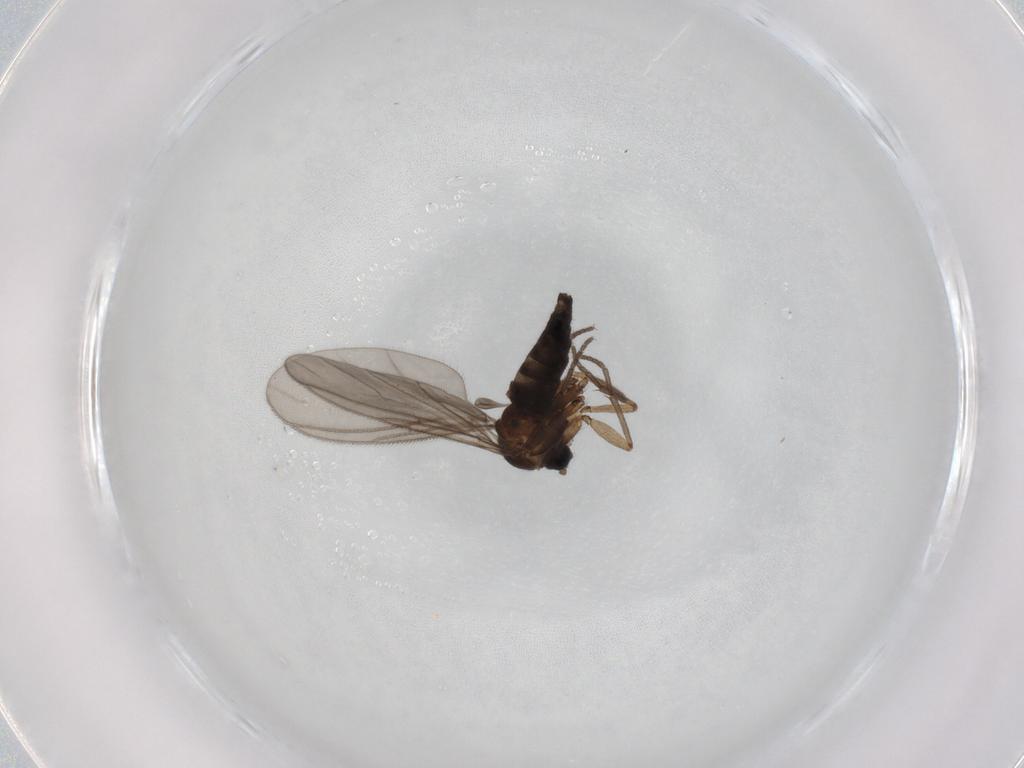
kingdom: Animalia
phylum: Arthropoda
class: Insecta
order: Diptera
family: Sciaridae
